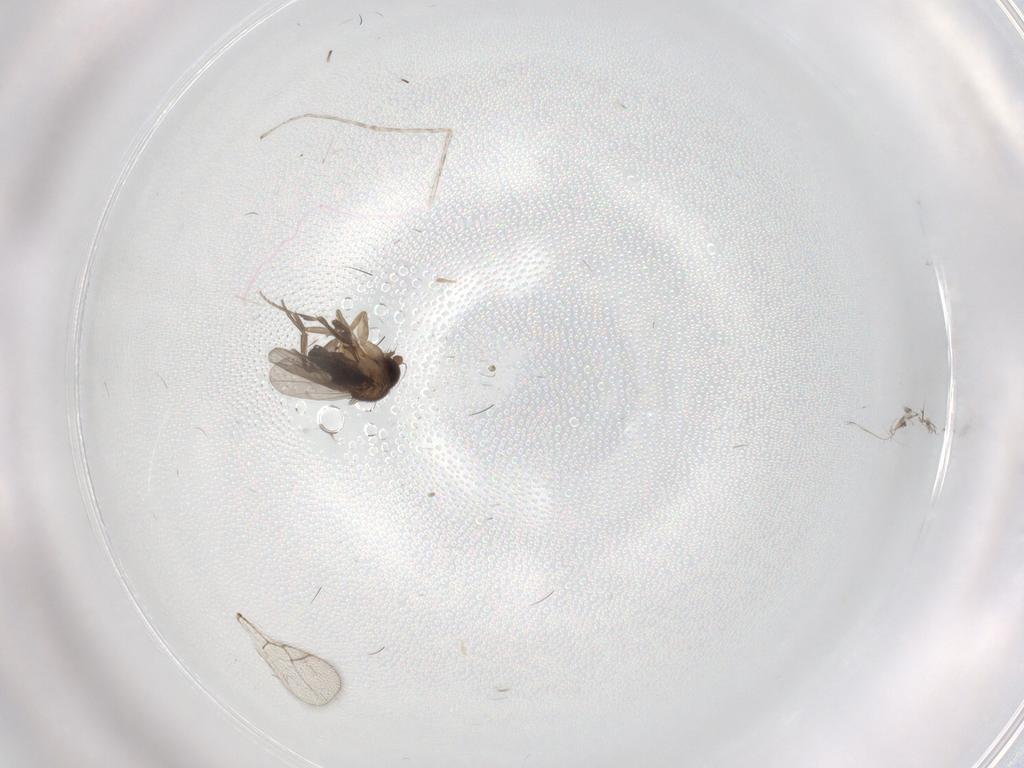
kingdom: Animalia
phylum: Arthropoda
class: Insecta
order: Diptera
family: Phoridae
